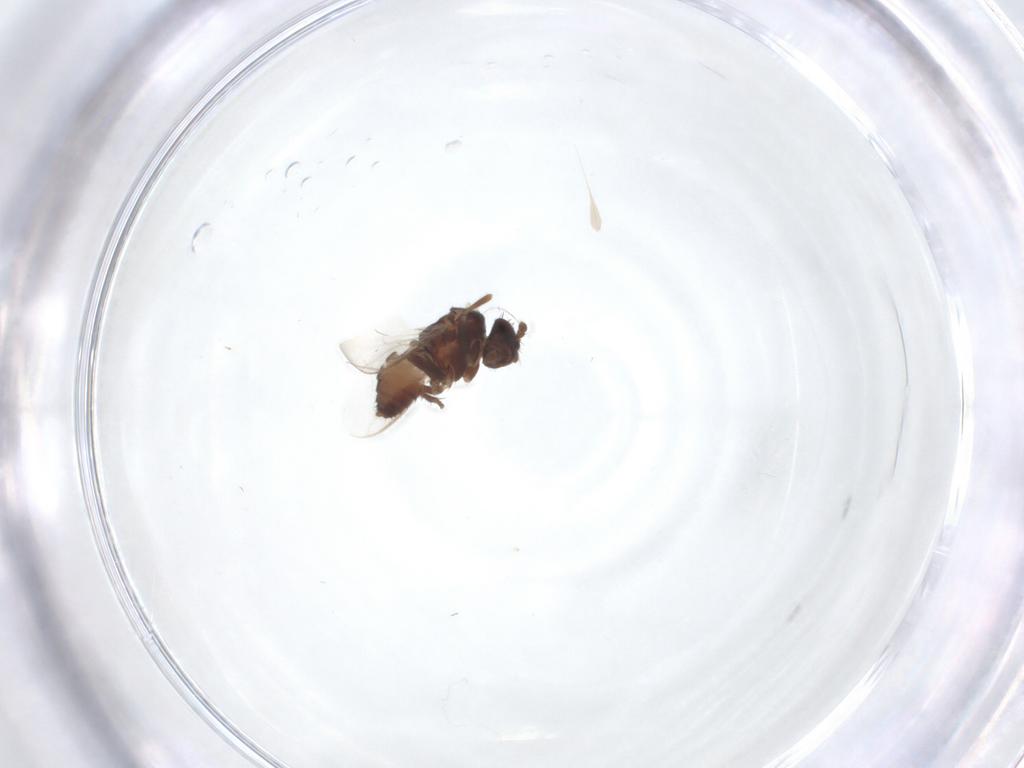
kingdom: Animalia
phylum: Arthropoda
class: Insecta
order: Diptera
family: Sphaeroceridae
